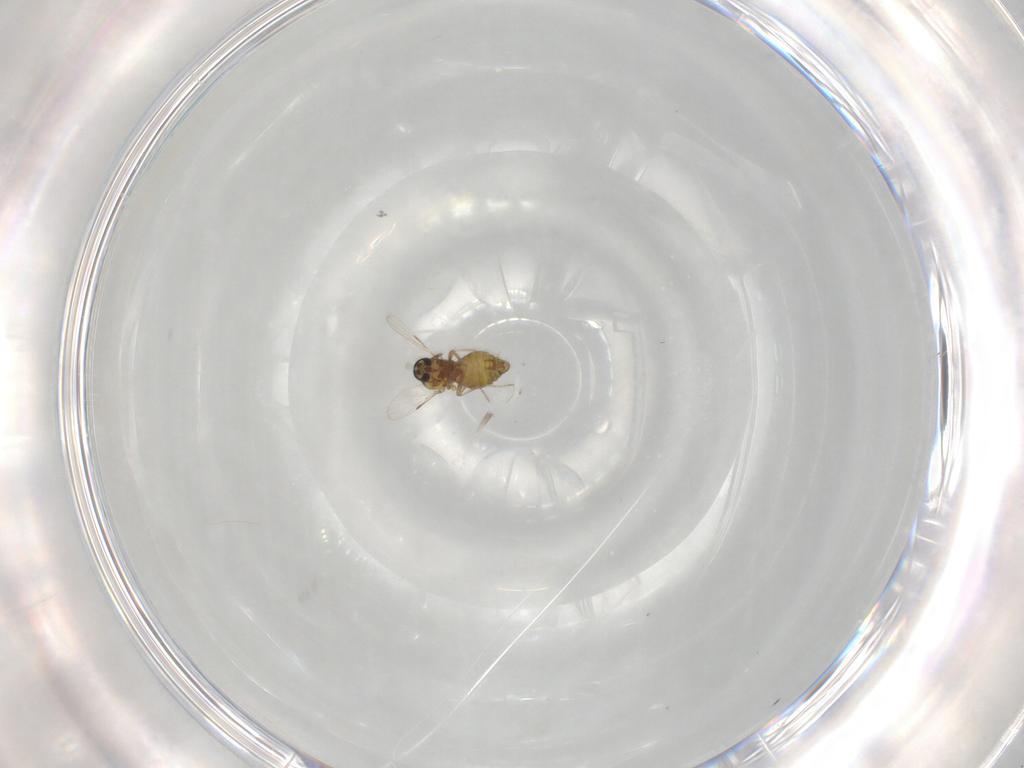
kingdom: Animalia
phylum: Arthropoda
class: Insecta
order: Diptera
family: Ceratopogonidae
